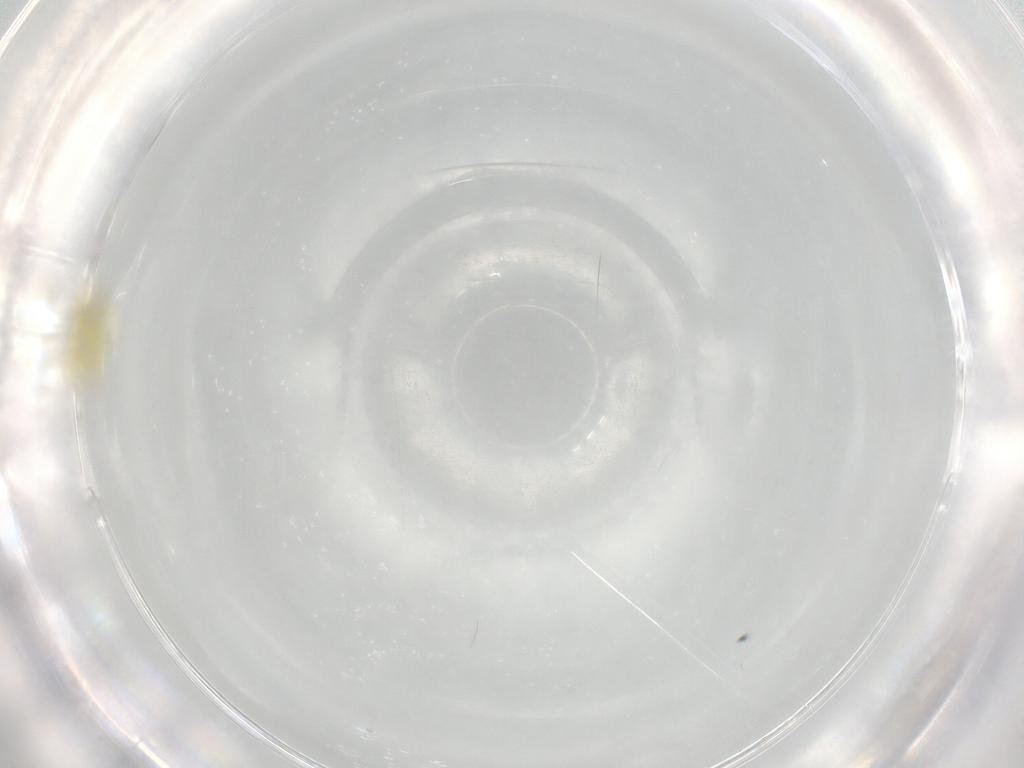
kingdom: Animalia
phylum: Arthropoda
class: Insecta
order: Hemiptera
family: Aleyrodidae
